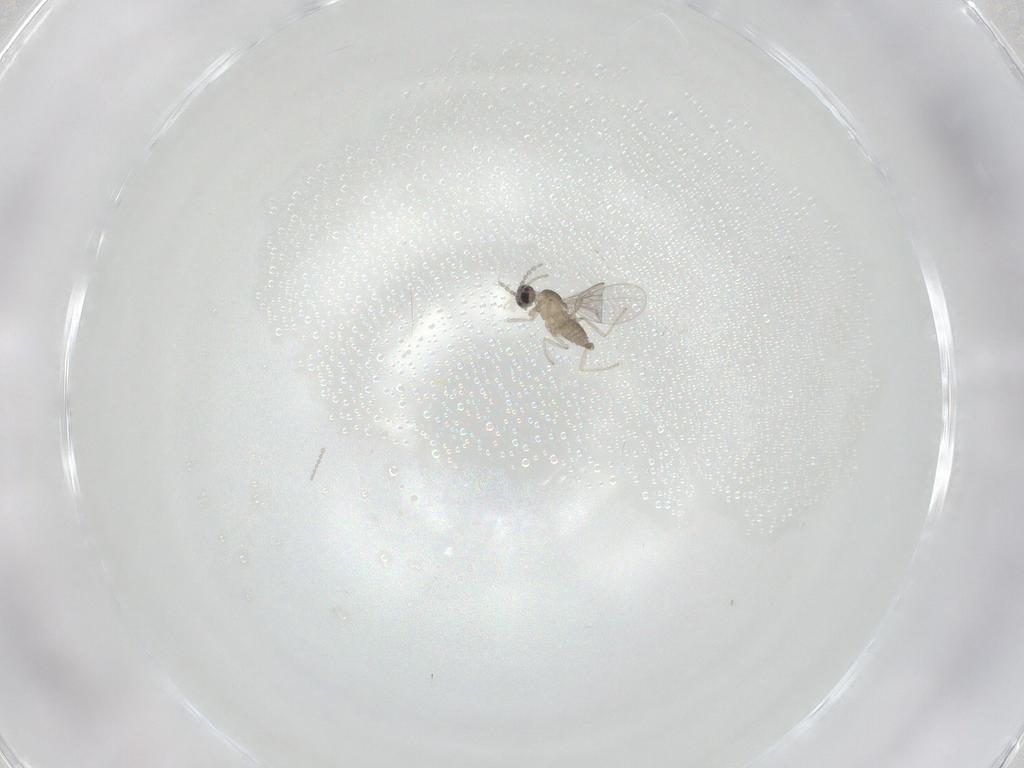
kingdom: Animalia
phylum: Arthropoda
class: Insecta
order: Diptera
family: Cecidomyiidae
